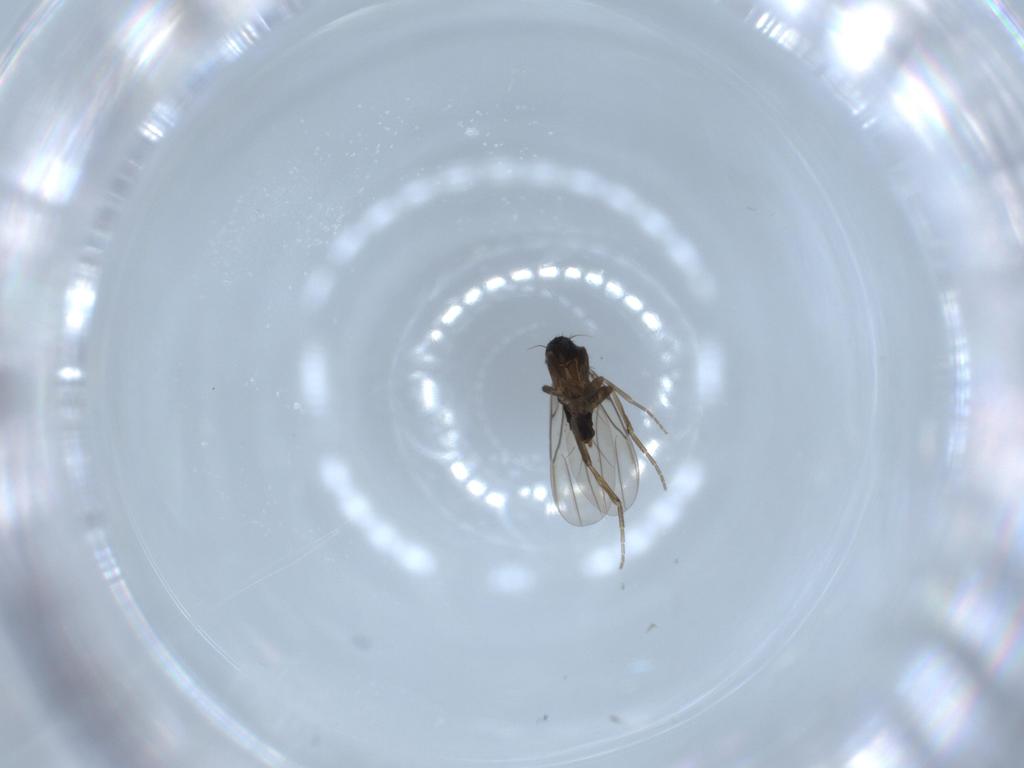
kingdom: Animalia
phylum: Arthropoda
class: Insecta
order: Diptera
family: Phoridae
